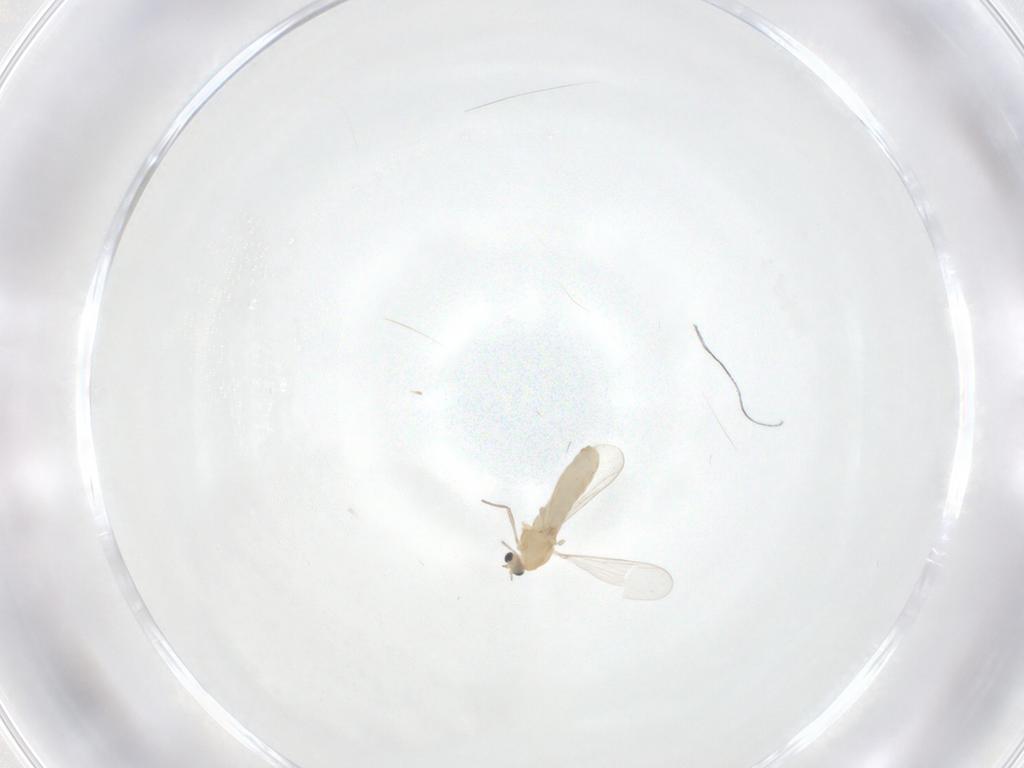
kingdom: Animalia
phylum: Arthropoda
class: Insecta
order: Diptera
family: Chironomidae
